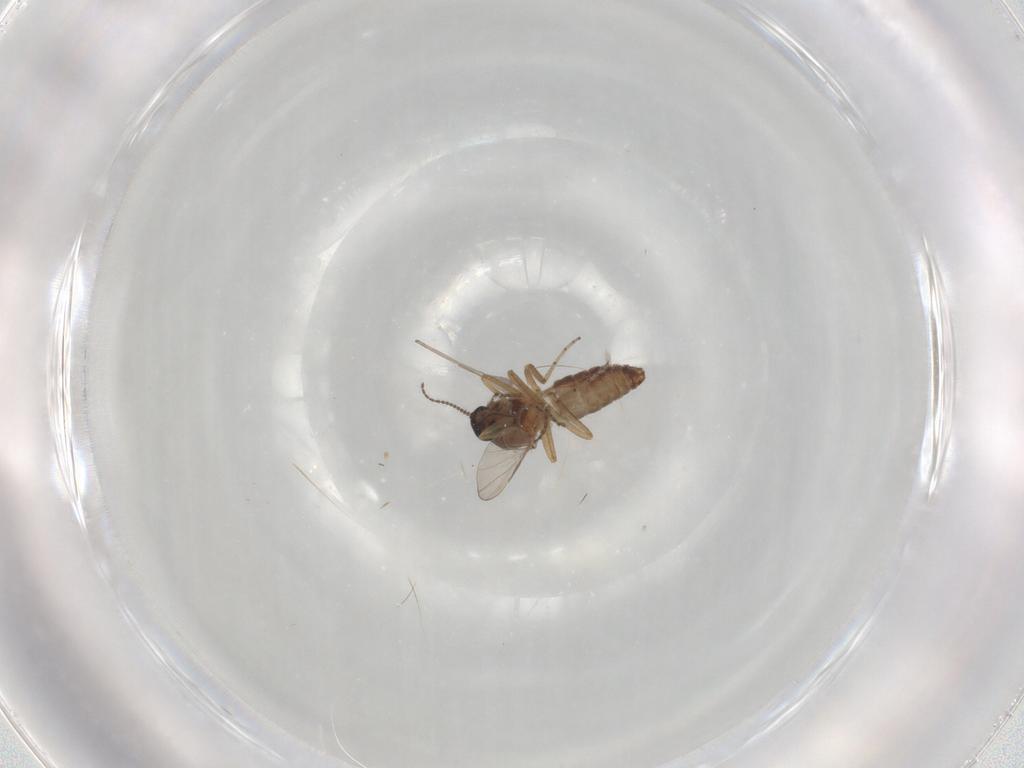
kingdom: Animalia
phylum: Arthropoda
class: Insecta
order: Diptera
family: Ceratopogonidae
